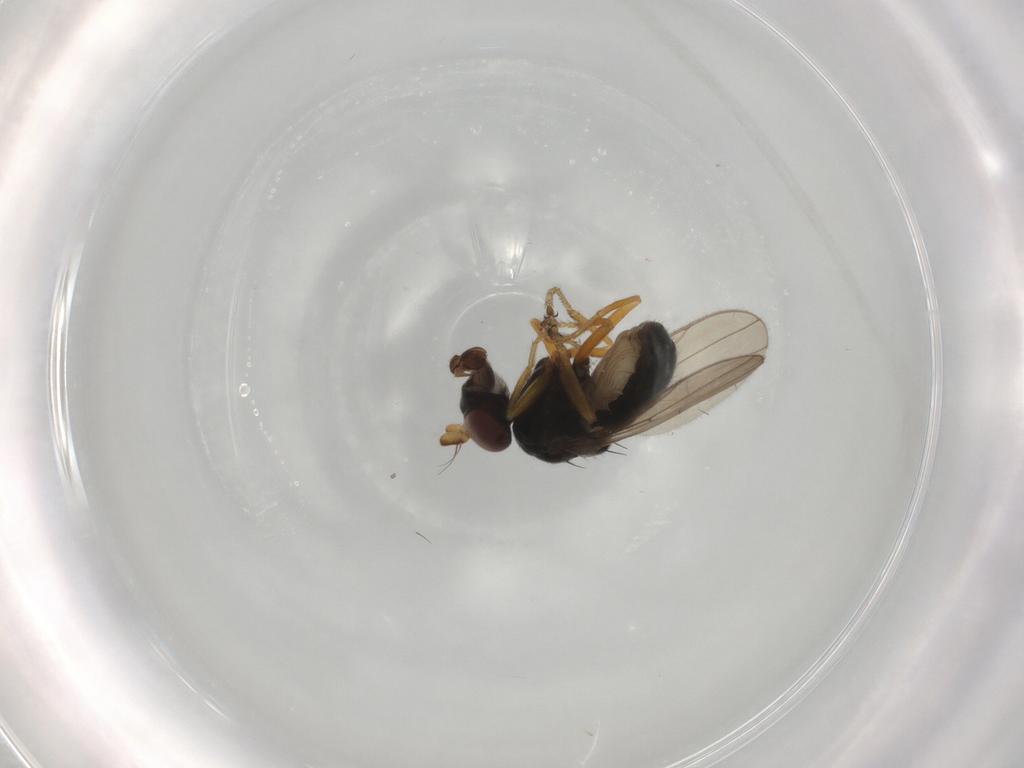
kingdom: Animalia
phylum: Arthropoda
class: Insecta
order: Diptera
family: Ephydridae
